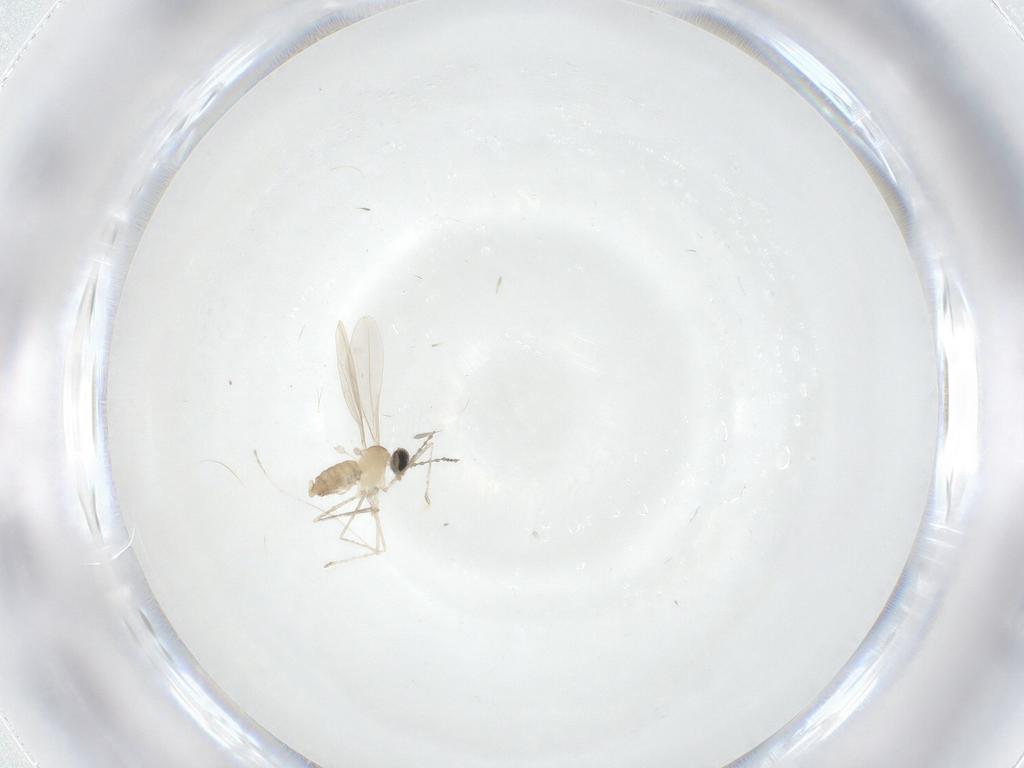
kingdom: Animalia
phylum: Arthropoda
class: Insecta
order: Diptera
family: Cecidomyiidae
